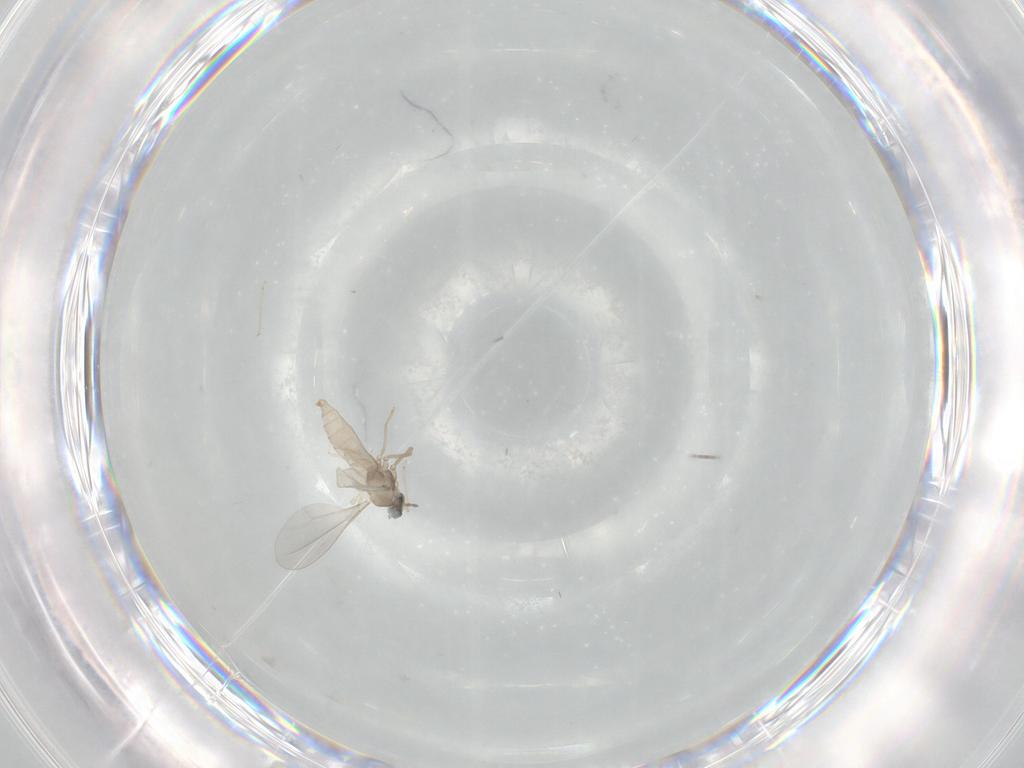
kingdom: Animalia
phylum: Arthropoda
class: Insecta
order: Diptera
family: Cecidomyiidae
